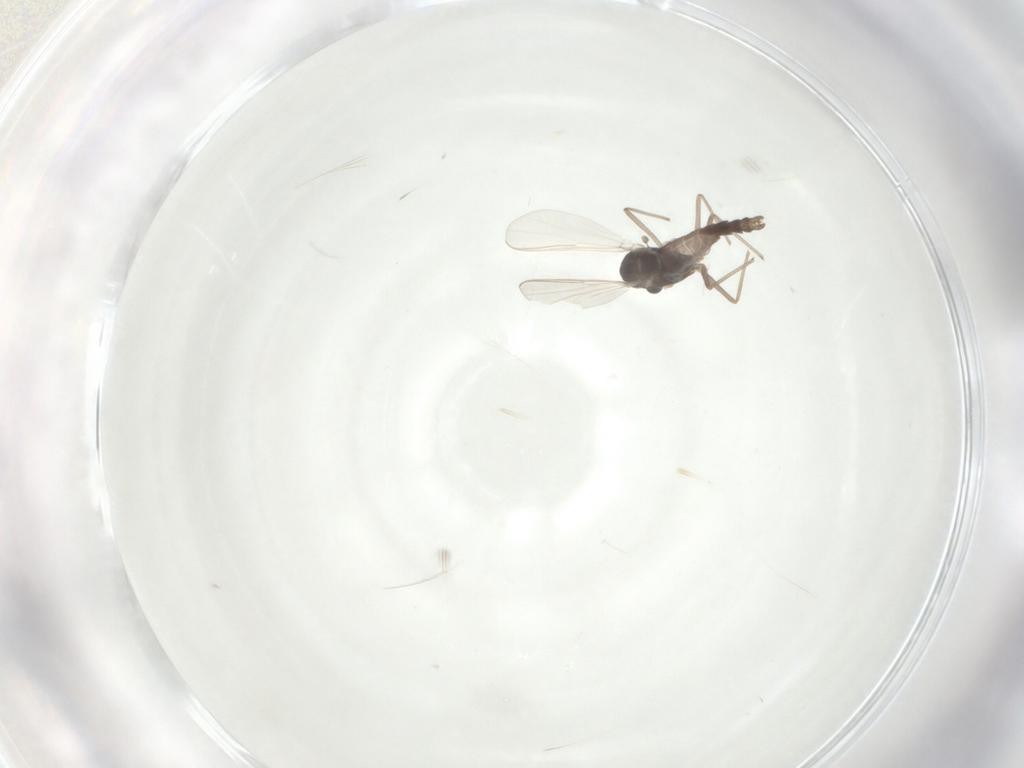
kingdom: Animalia
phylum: Arthropoda
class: Insecta
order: Diptera
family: Chironomidae
